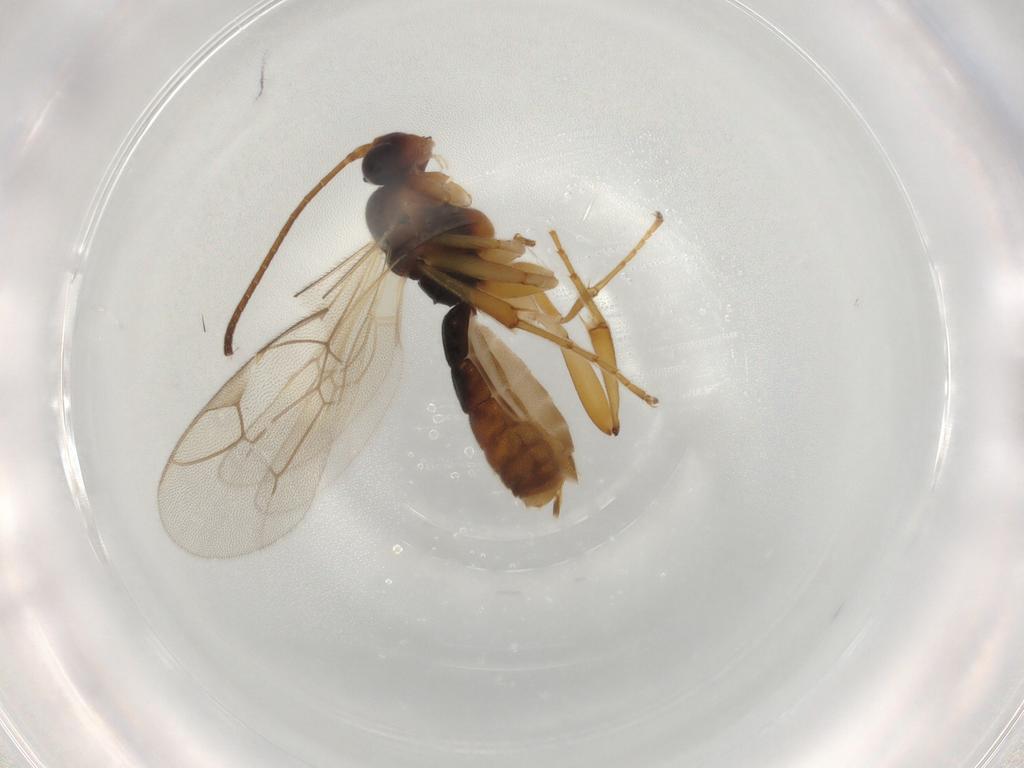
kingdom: Animalia
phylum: Arthropoda
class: Insecta
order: Hymenoptera
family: Ichneumonidae
